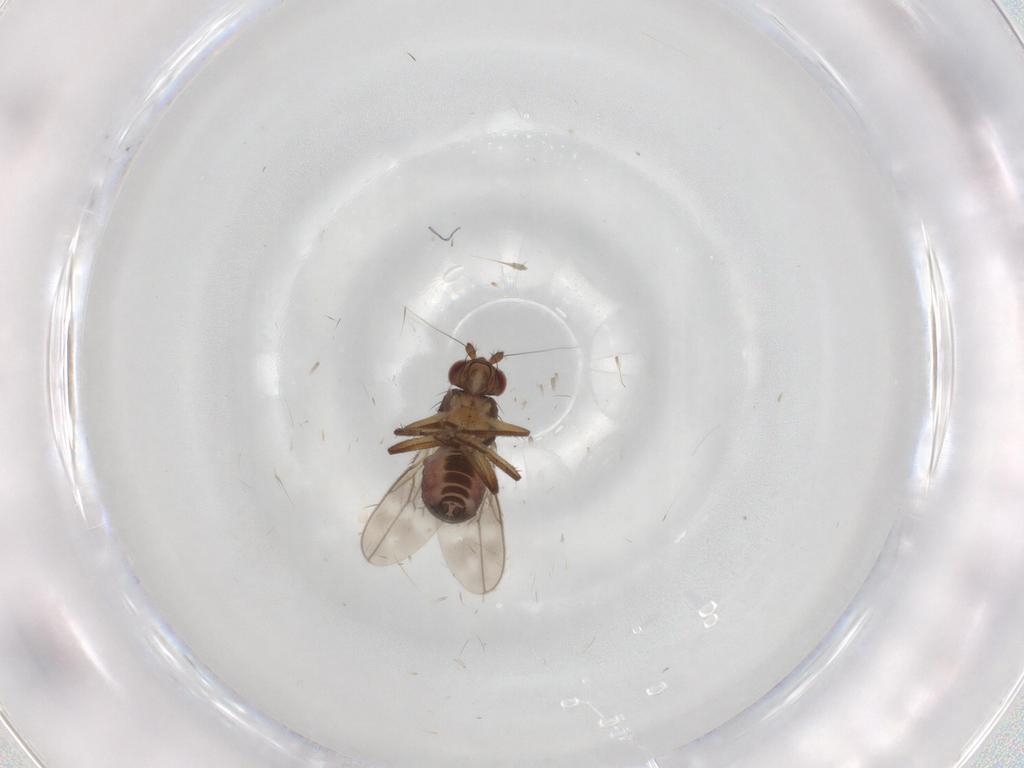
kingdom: Animalia
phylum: Arthropoda
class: Insecta
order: Diptera
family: Sphaeroceridae
